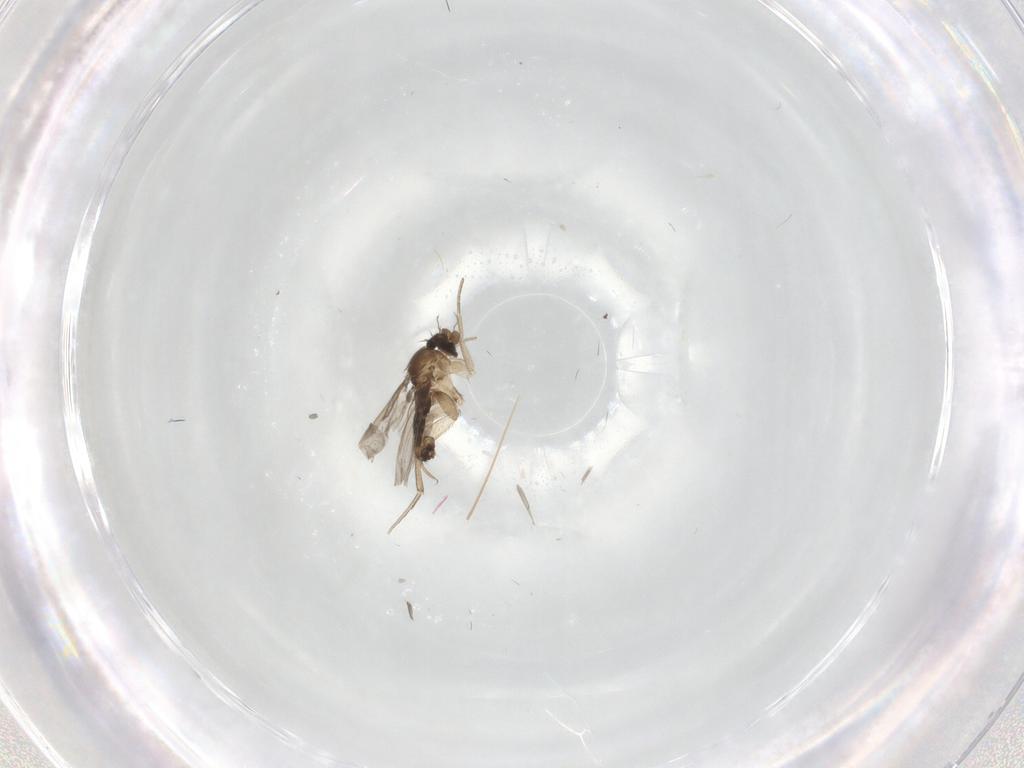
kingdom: Animalia
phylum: Arthropoda
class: Insecta
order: Diptera
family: Phoridae
